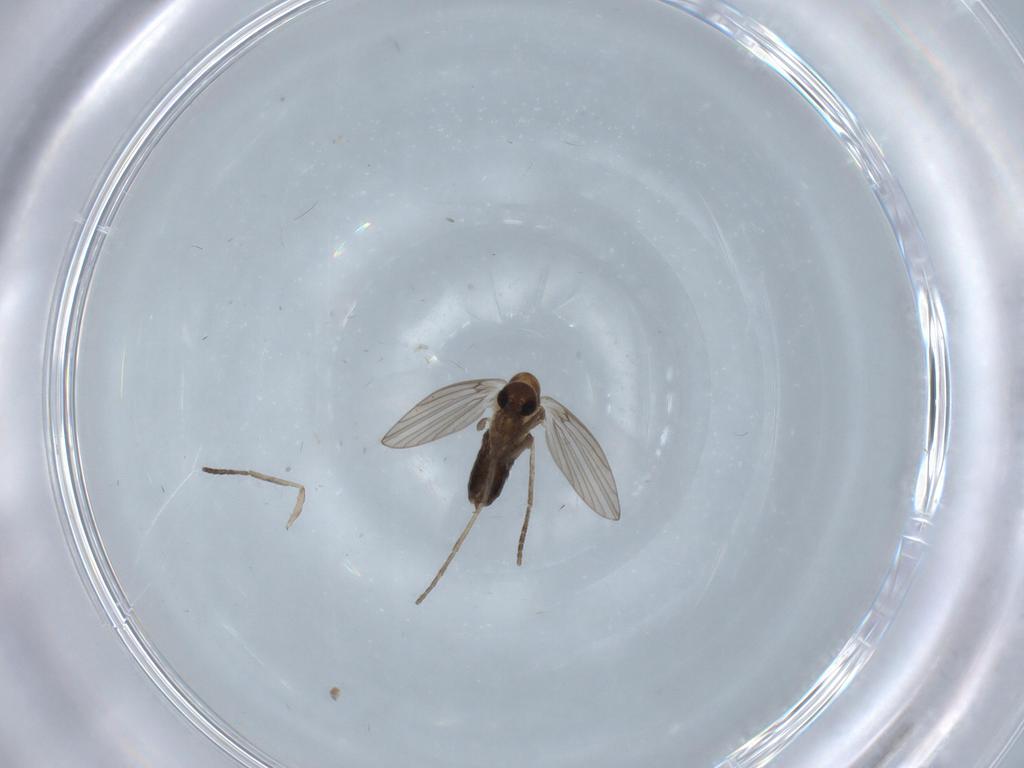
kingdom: Animalia
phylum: Arthropoda
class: Insecta
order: Diptera
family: Psychodidae
